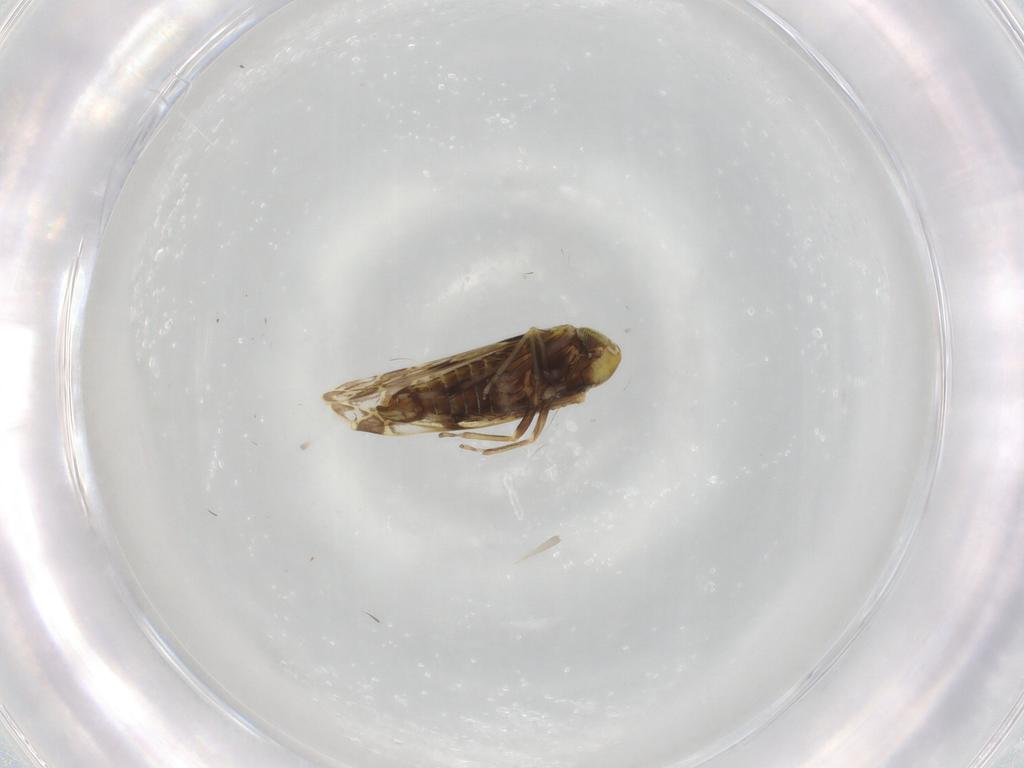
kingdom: Animalia
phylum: Arthropoda
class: Insecta
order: Hemiptera
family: Cicadellidae
